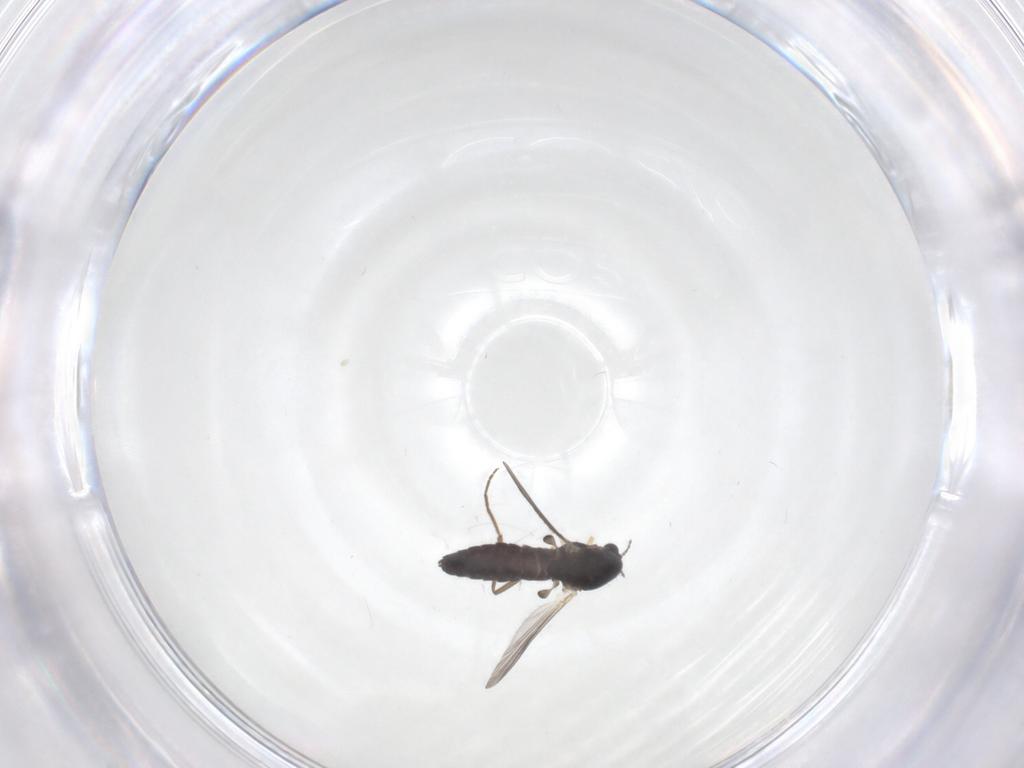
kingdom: Animalia
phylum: Arthropoda
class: Insecta
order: Diptera
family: Chironomidae
